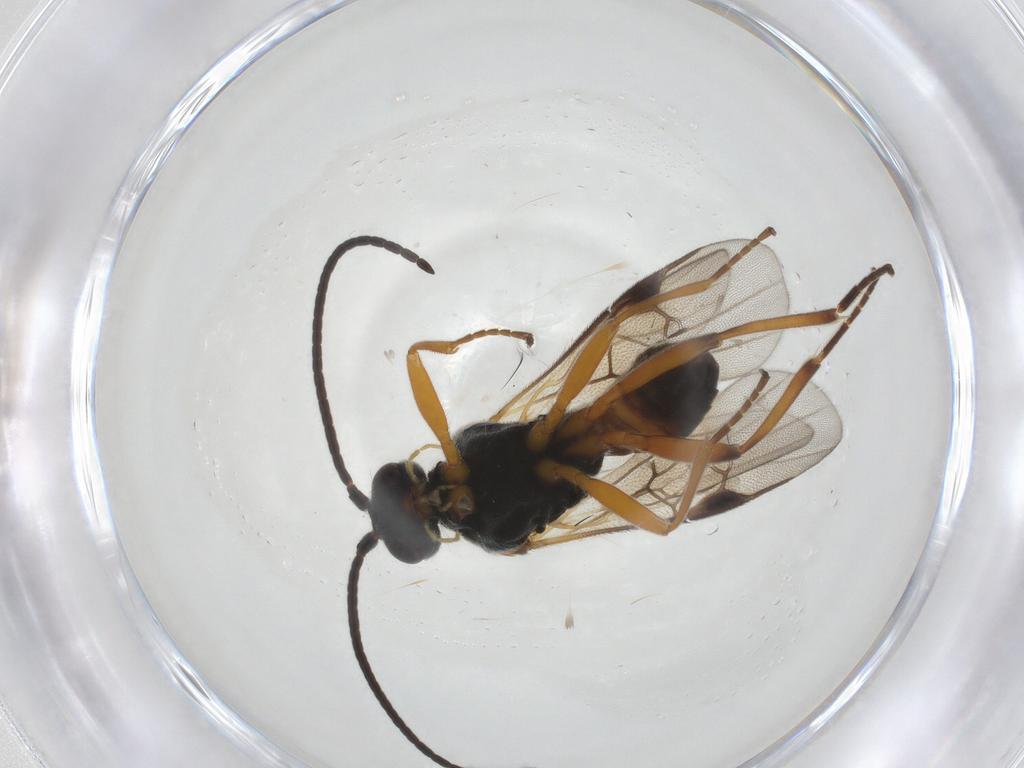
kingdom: Animalia
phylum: Arthropoda
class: Insecta
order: Hymenoptera
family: Braconidae
